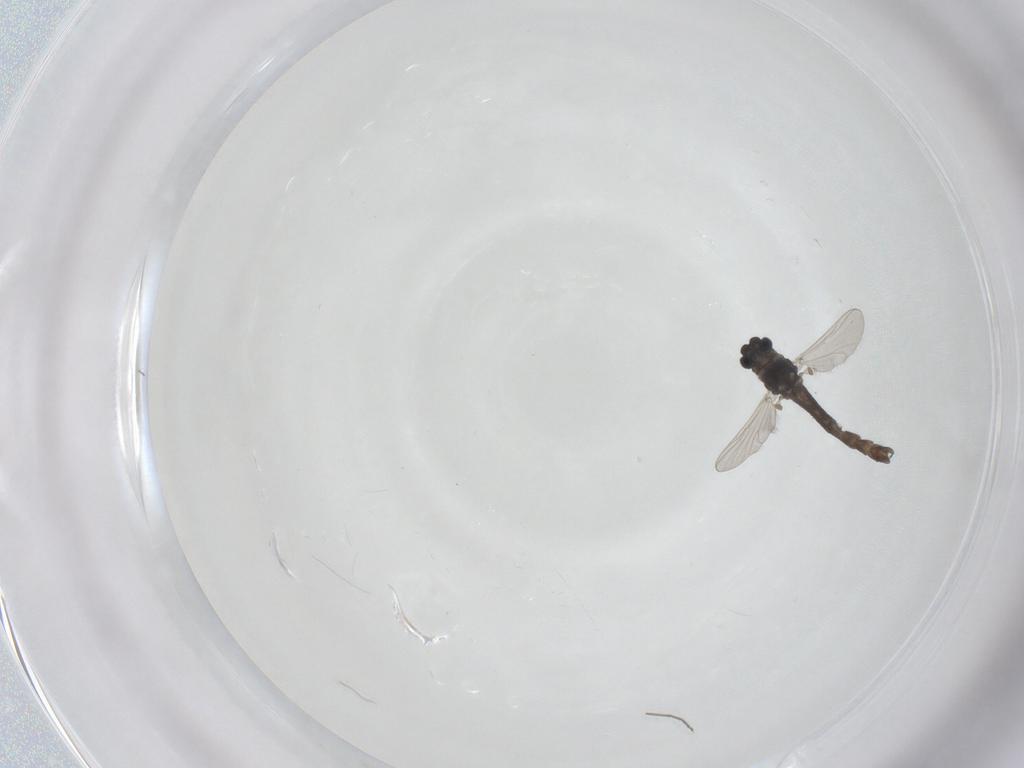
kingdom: Animalia
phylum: Arthropoda
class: Insecta
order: Diptera
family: Chironomidae
